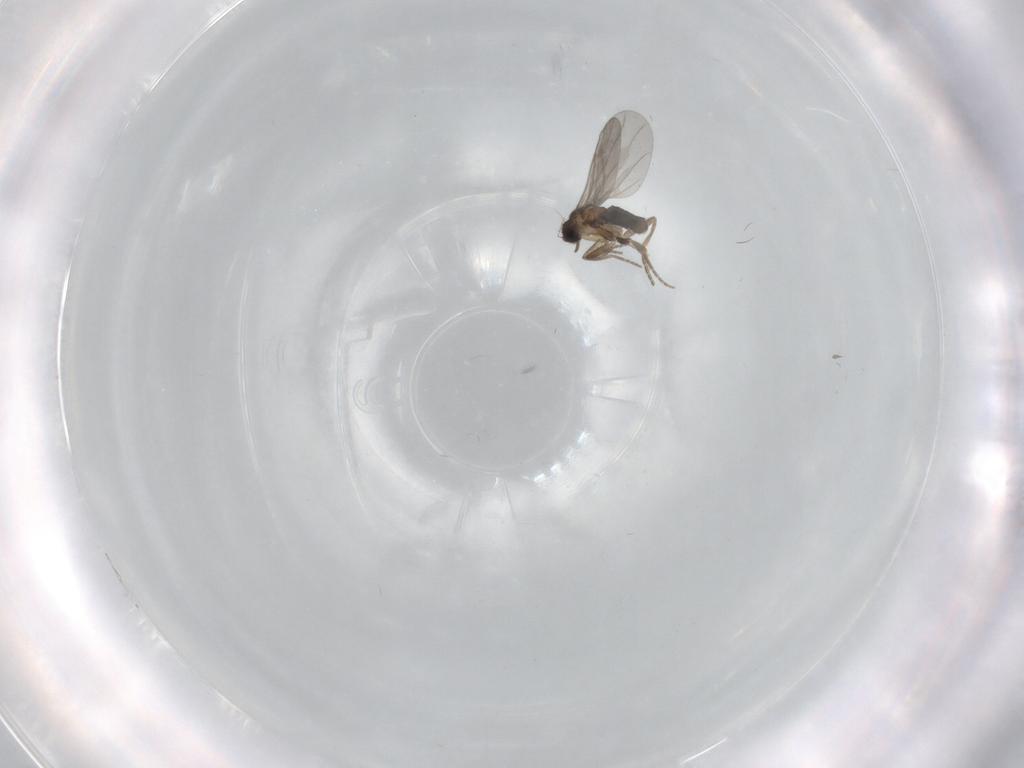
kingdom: Animalia
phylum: Arthropoda
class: Insecta
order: Diptera
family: Phoridae
